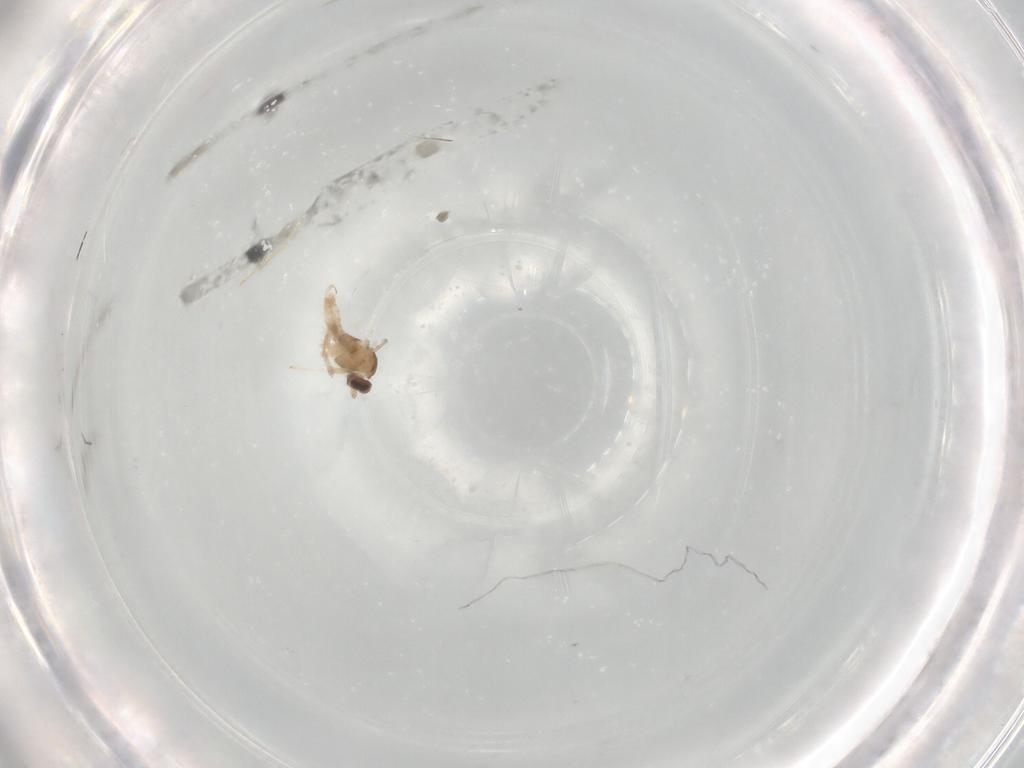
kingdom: Animalia
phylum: Arthropoda
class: Insecta
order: Diptera
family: Cecidomyiidae
